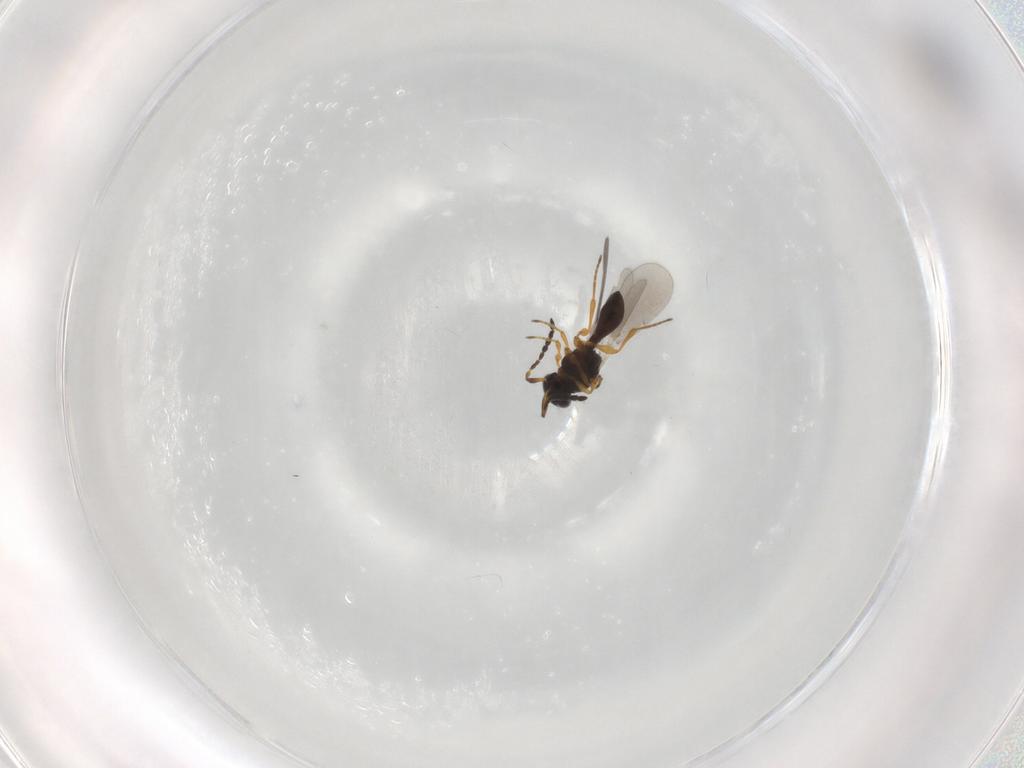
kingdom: Animalia
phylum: Arthropoda
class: Insecta
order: Hymenoptera
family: Platygastridae
